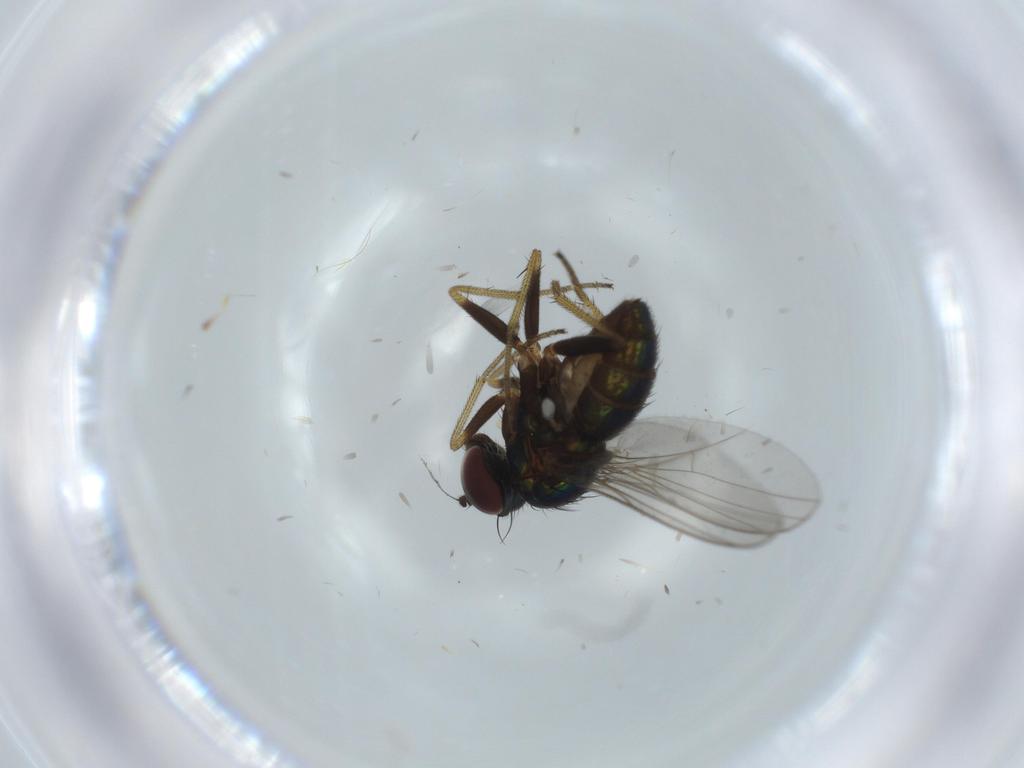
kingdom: Animalia
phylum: Arthropoda
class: Insecta
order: Diptera
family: Dolichopodidae
